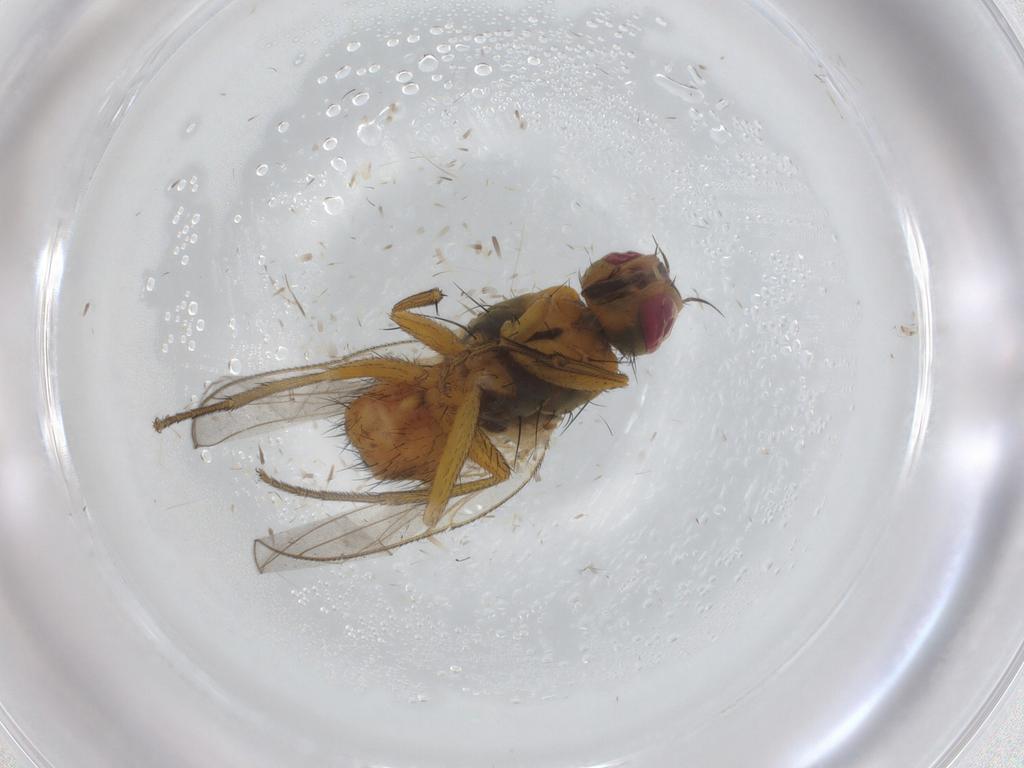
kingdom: Animalia
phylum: Arthropoda
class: Insecta
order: Diptera
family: Muscidae
